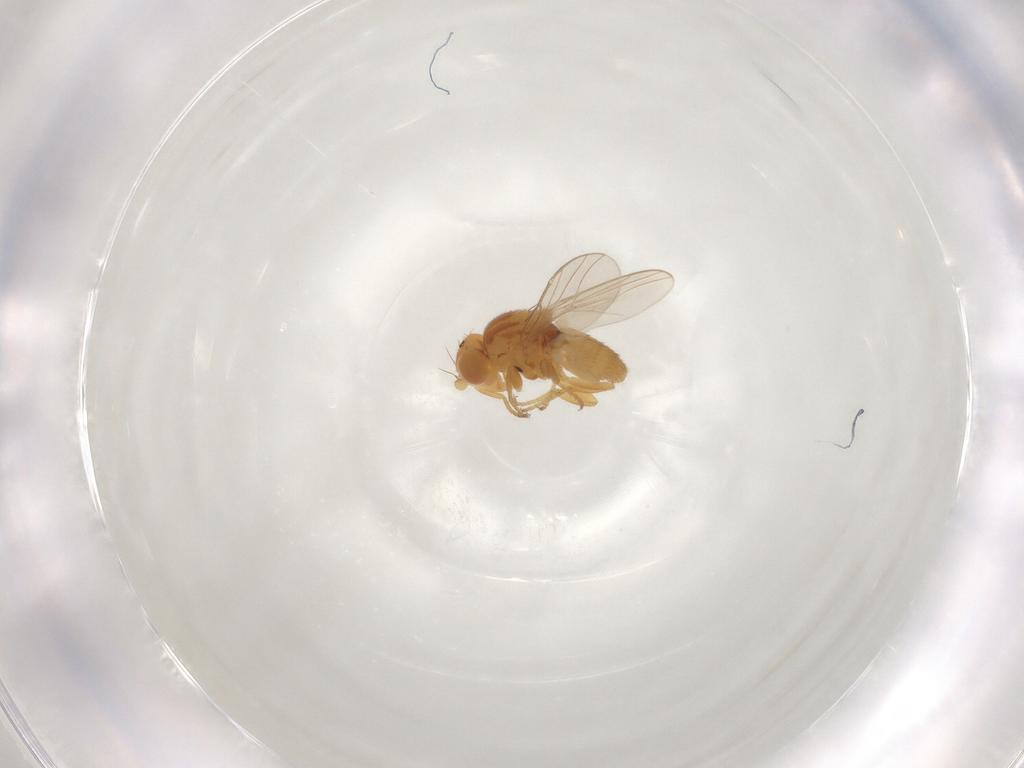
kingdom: Animalia
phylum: Arthropoda
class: Insecta
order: Diptera
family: Chloropidae
